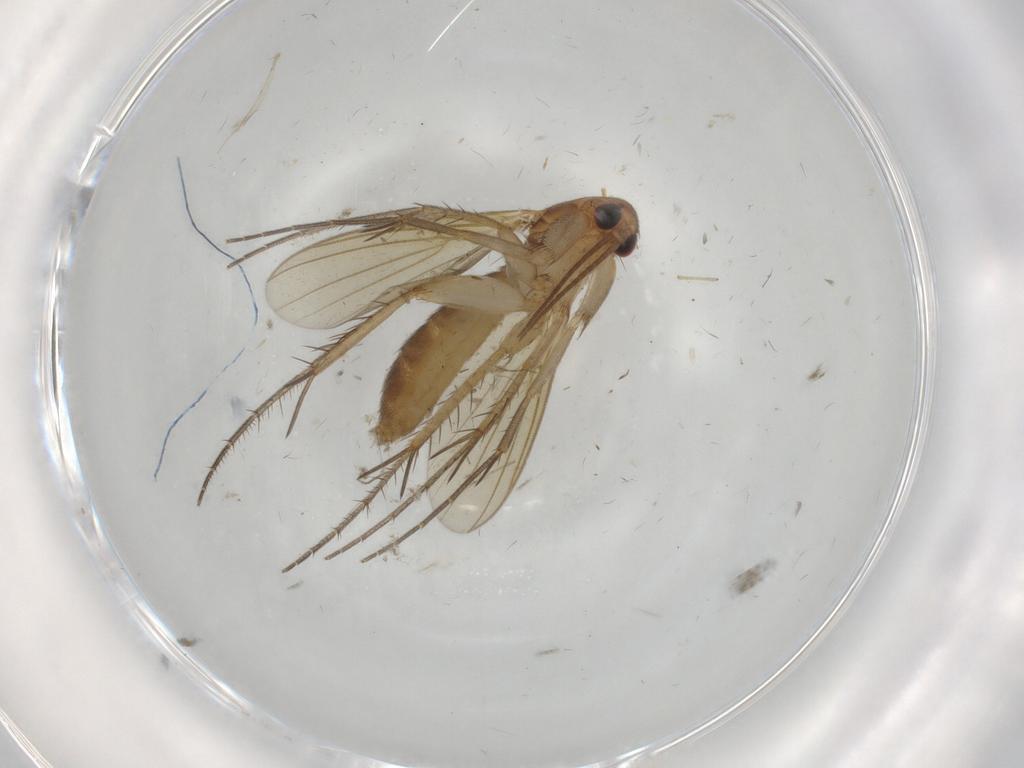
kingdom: Animalia
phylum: Arthropoda
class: Insecta
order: Diptera
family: Mycetophilidae
